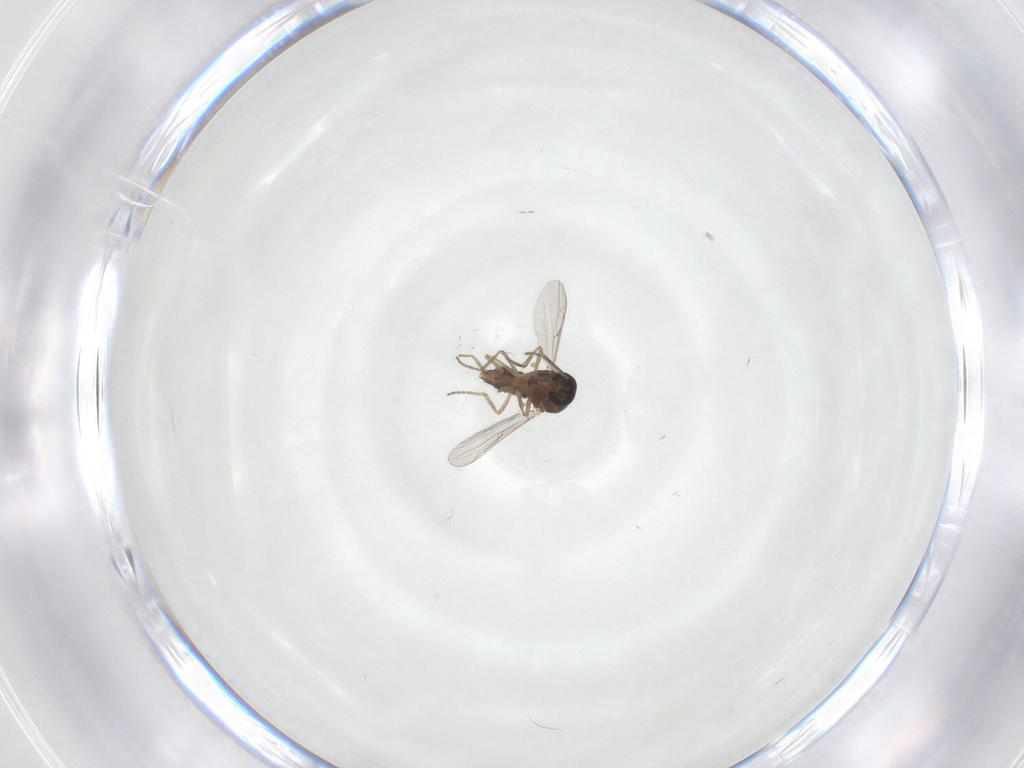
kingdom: Animalia
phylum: Arthropoda
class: Insecta
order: Diptera
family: Ceratopogonidae
